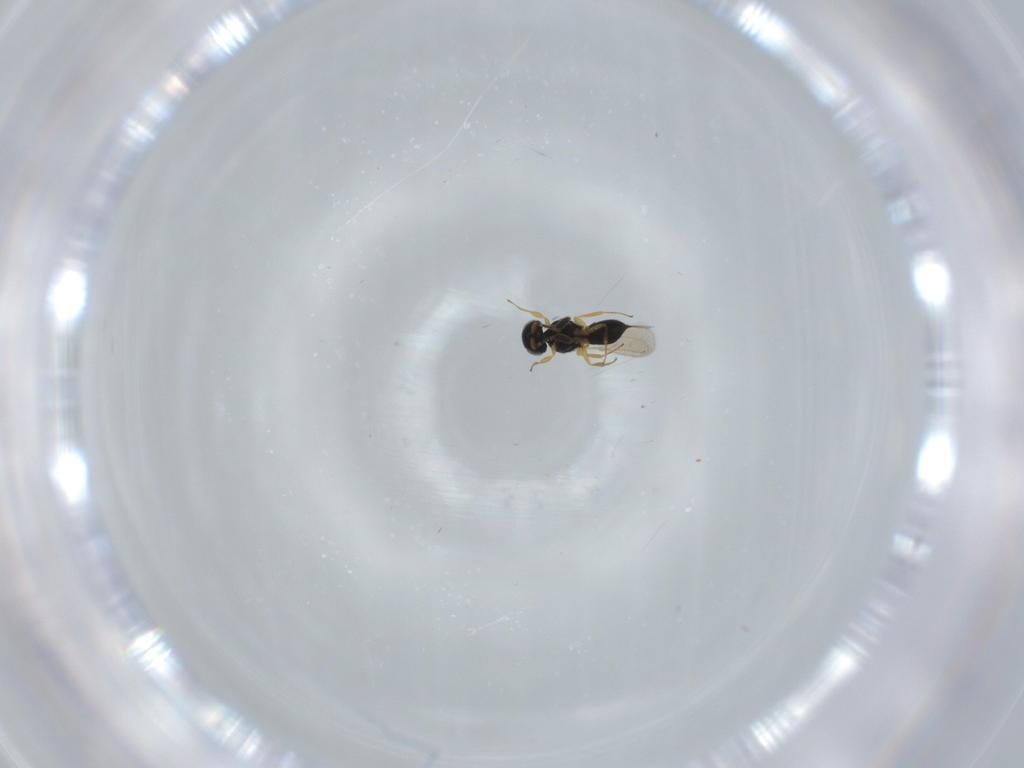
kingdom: Animalia
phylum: Arthropoda
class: Insecta
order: Hymenoptera
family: Scelionidae
